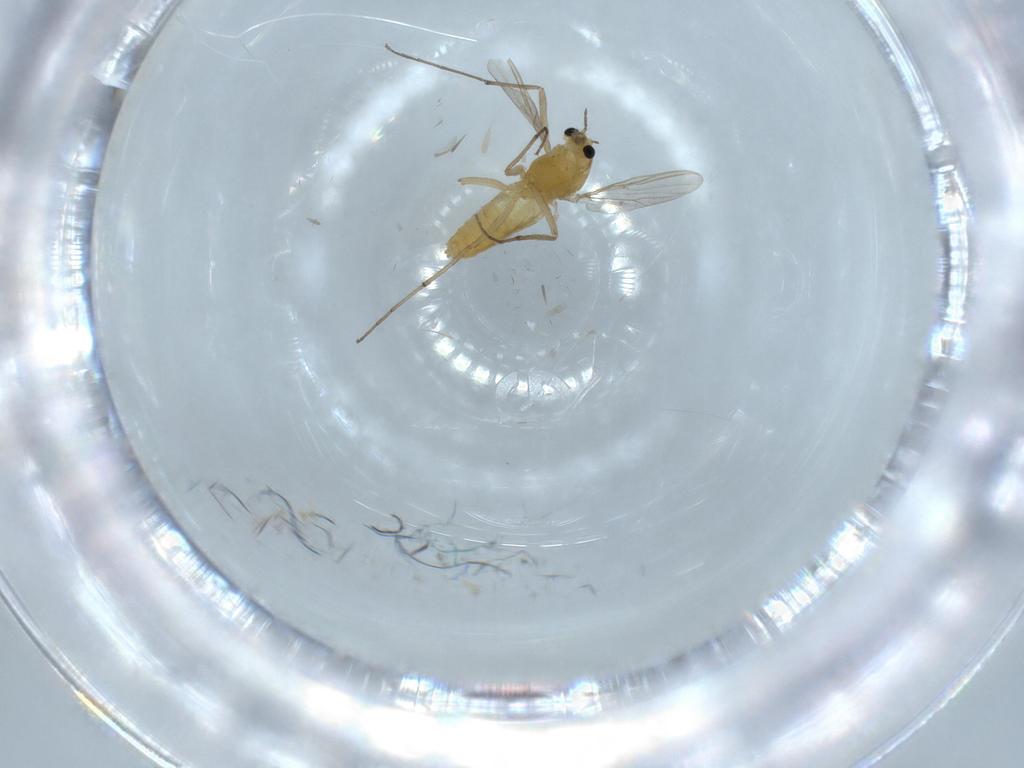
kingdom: Animalia
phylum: Arthropoda
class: Insecta
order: Diptera
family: Chironomidae
